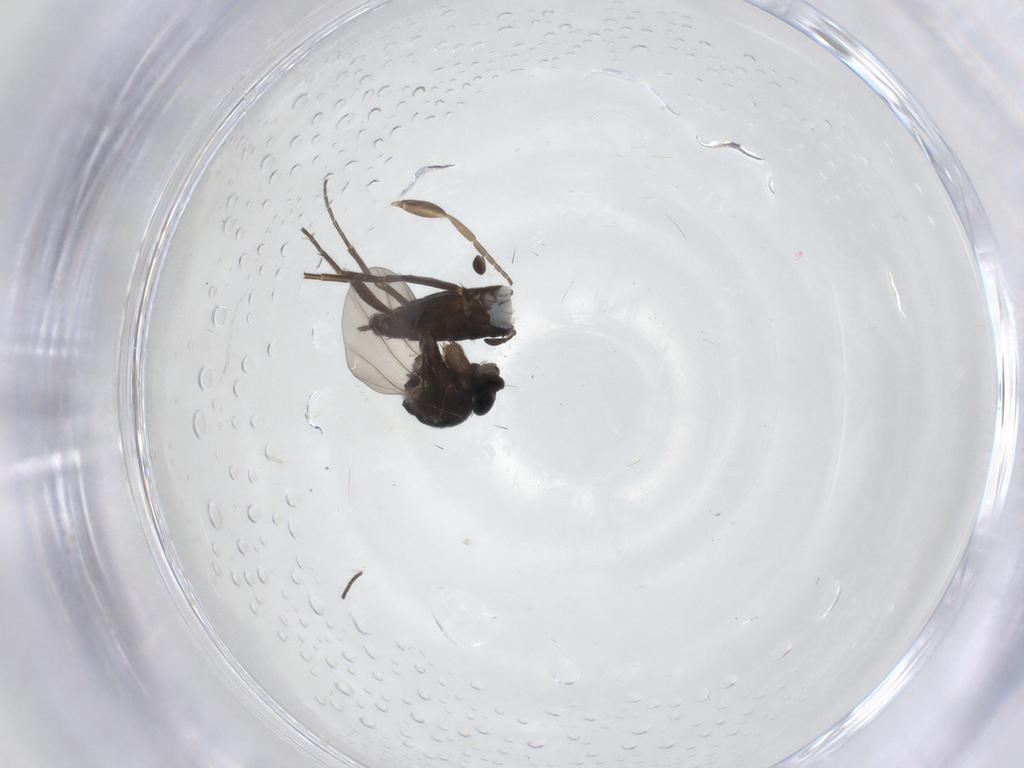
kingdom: Animalia
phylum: Arthropoda
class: Insecta
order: Diptera
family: Phoridae
